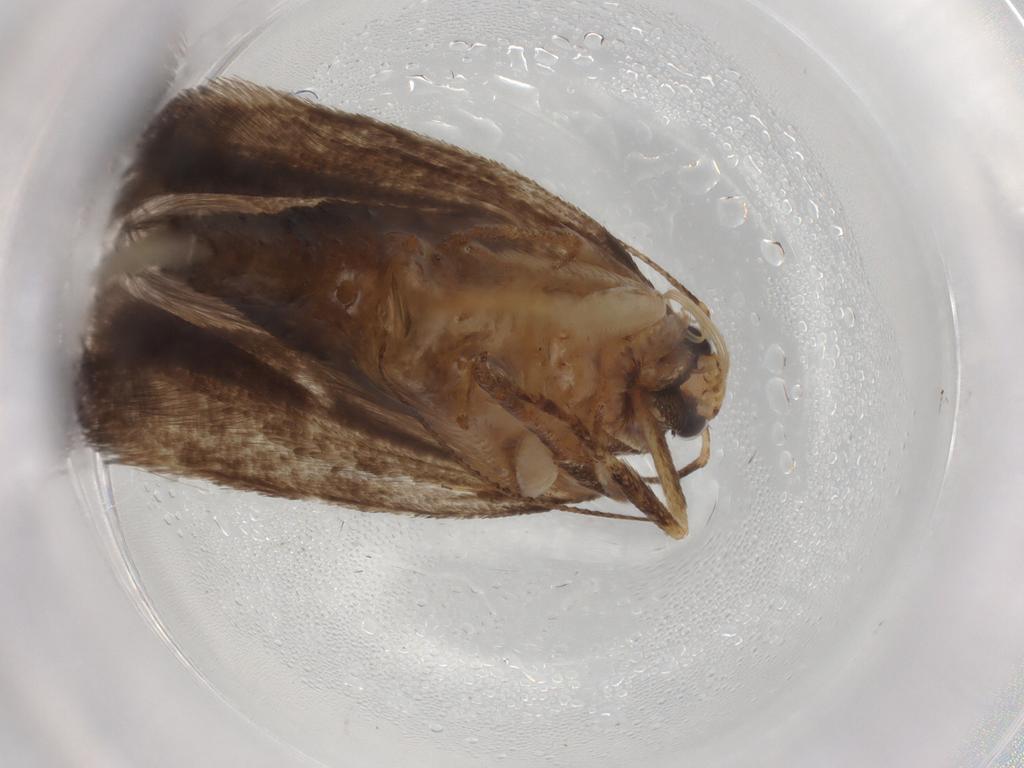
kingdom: Animalia
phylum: Arthropoda
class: Insecta
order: Lepidoptera
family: Gelechiidae
